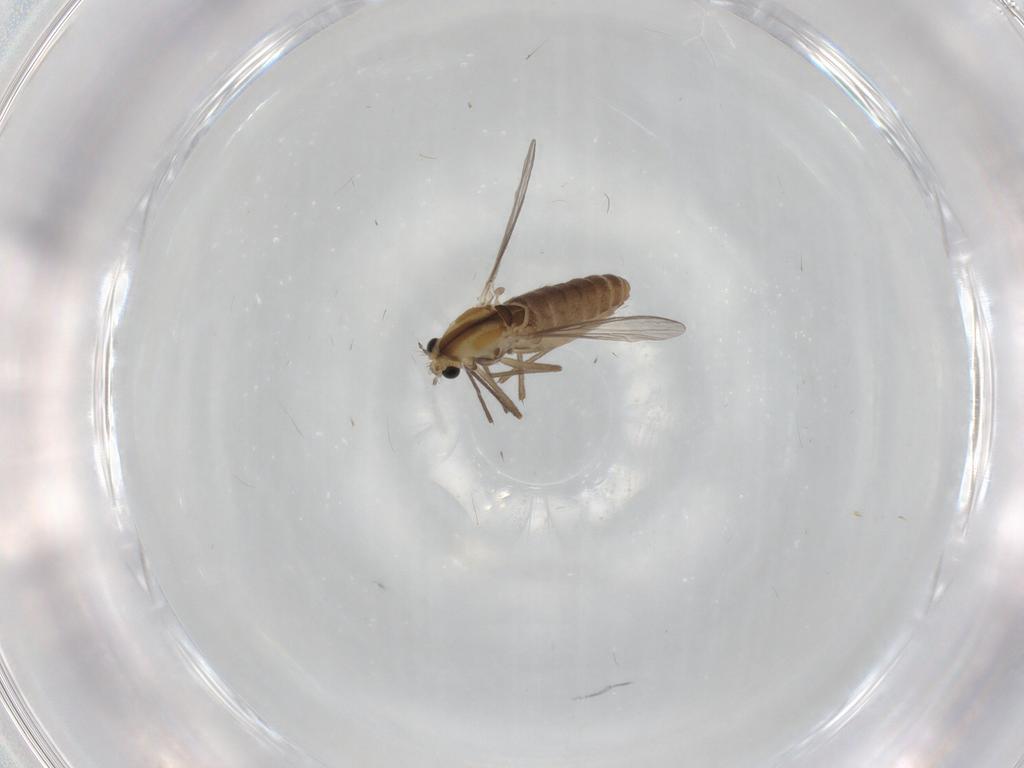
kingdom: Animalia
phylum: Arthropoda
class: Insecta
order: Diptera
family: Chironomidae
